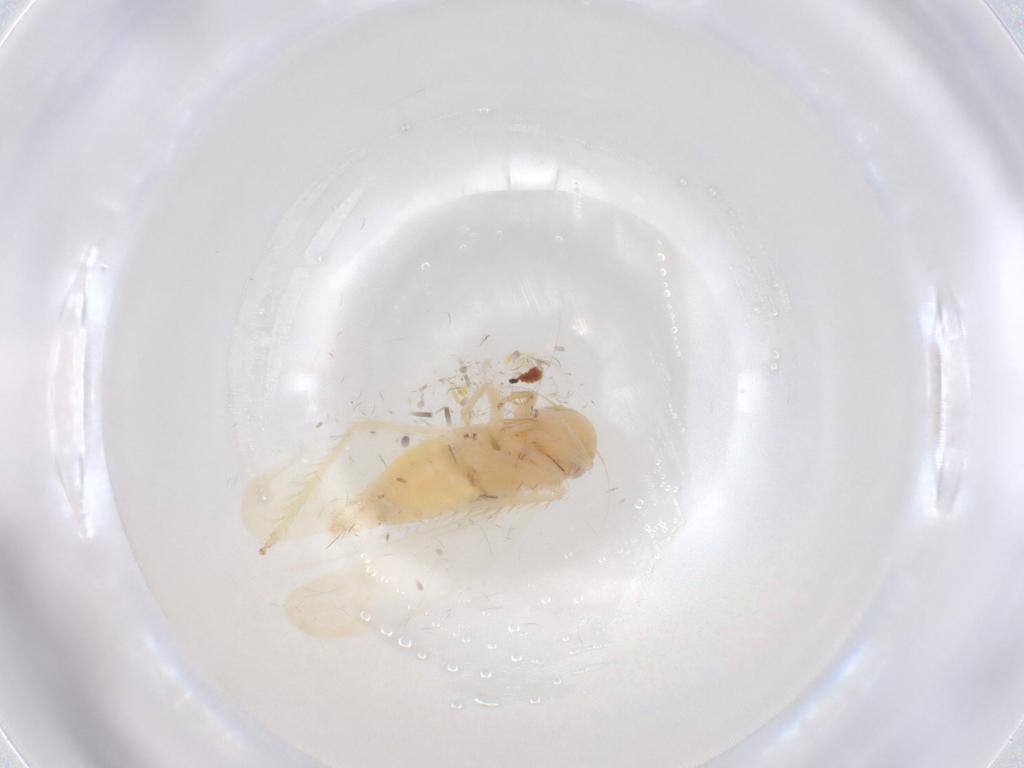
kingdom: Animalia
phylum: Arthropoda
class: Insecta
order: Hemiptera
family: Aphididae
